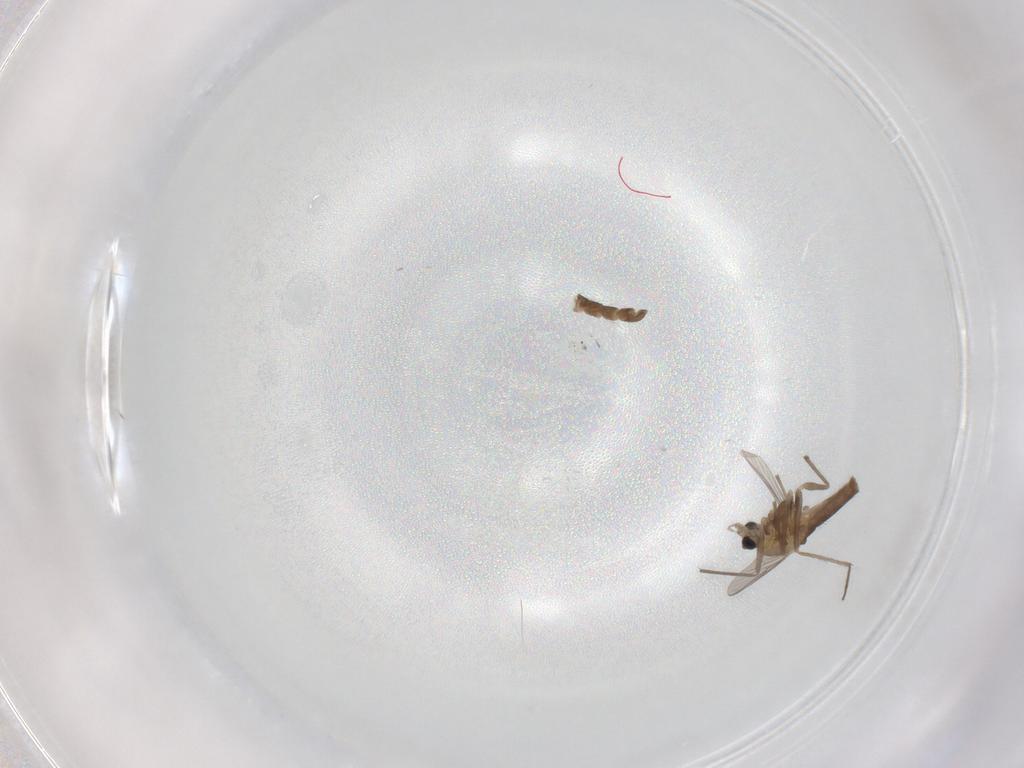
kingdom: Animalia
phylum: Arthropoda
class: Insecta
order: Diptera
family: Chironomidae
